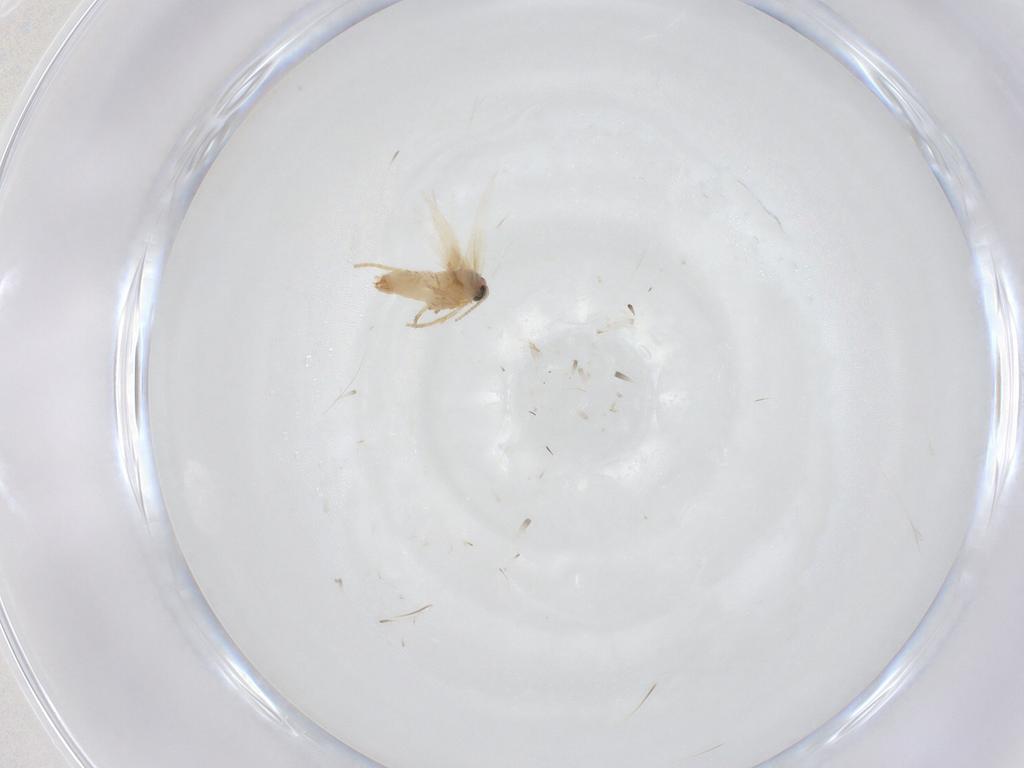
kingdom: Animalia
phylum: Arthropoda
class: Insecta
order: Lepidoptera
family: Crambidae
